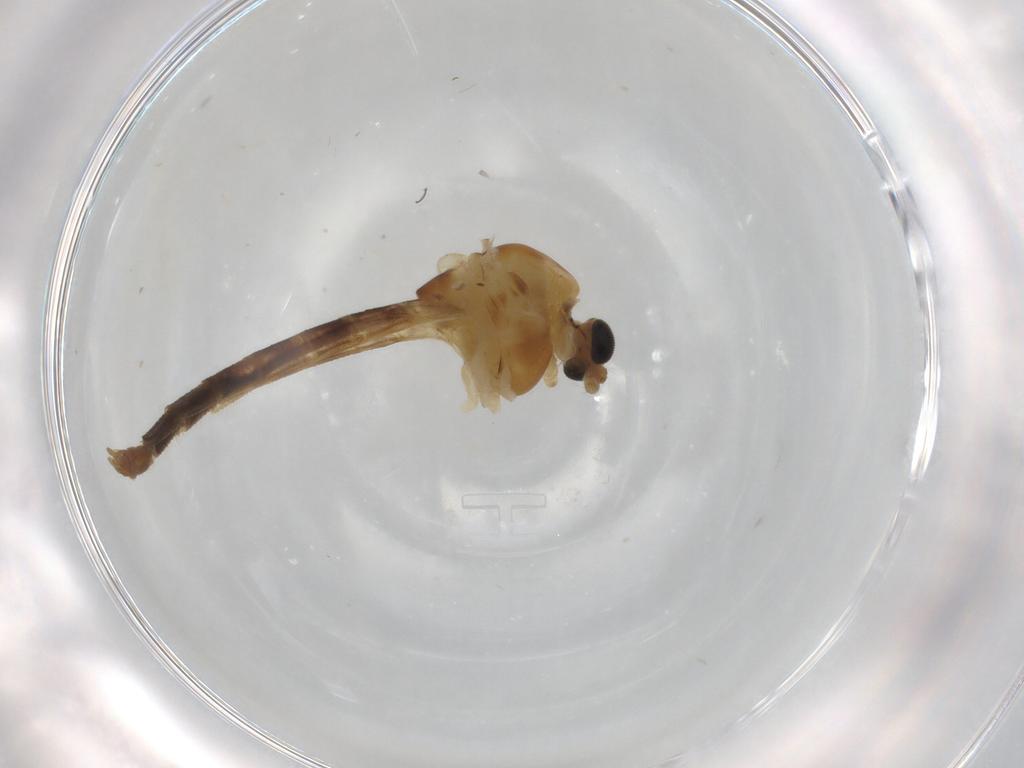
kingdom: Animalia
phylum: Arthropoda
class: Insecta
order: Diptera
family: Chironomidae
